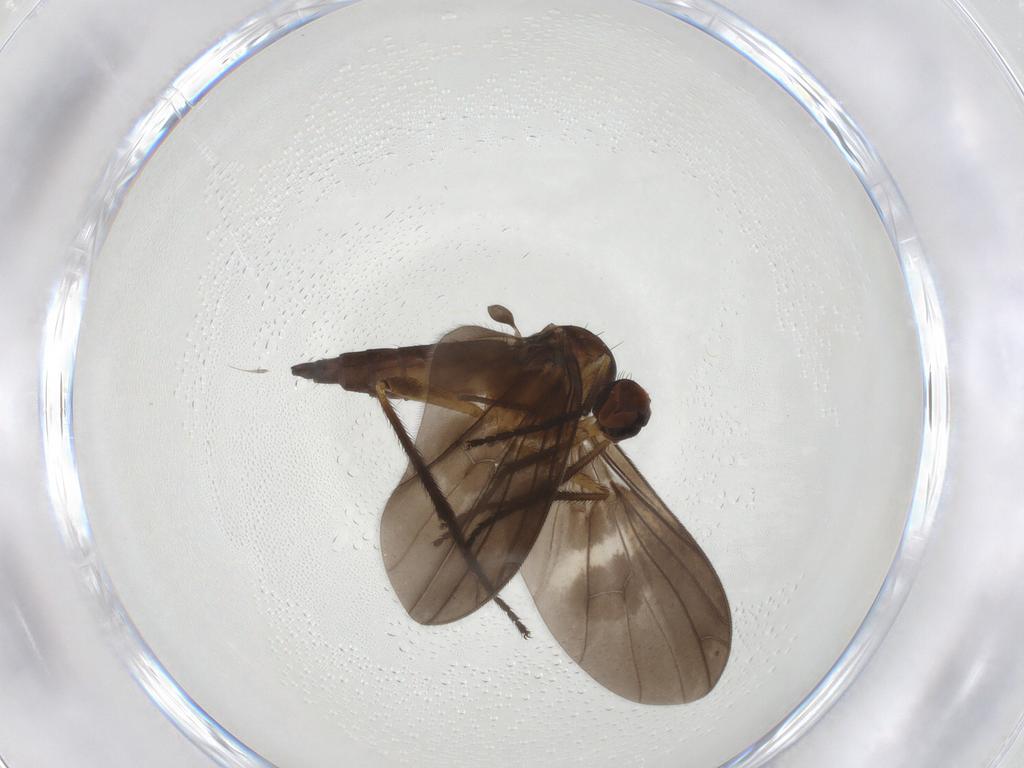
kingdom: Animalia
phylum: Arthropoda
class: Insecta
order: Diptera
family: Empididae
